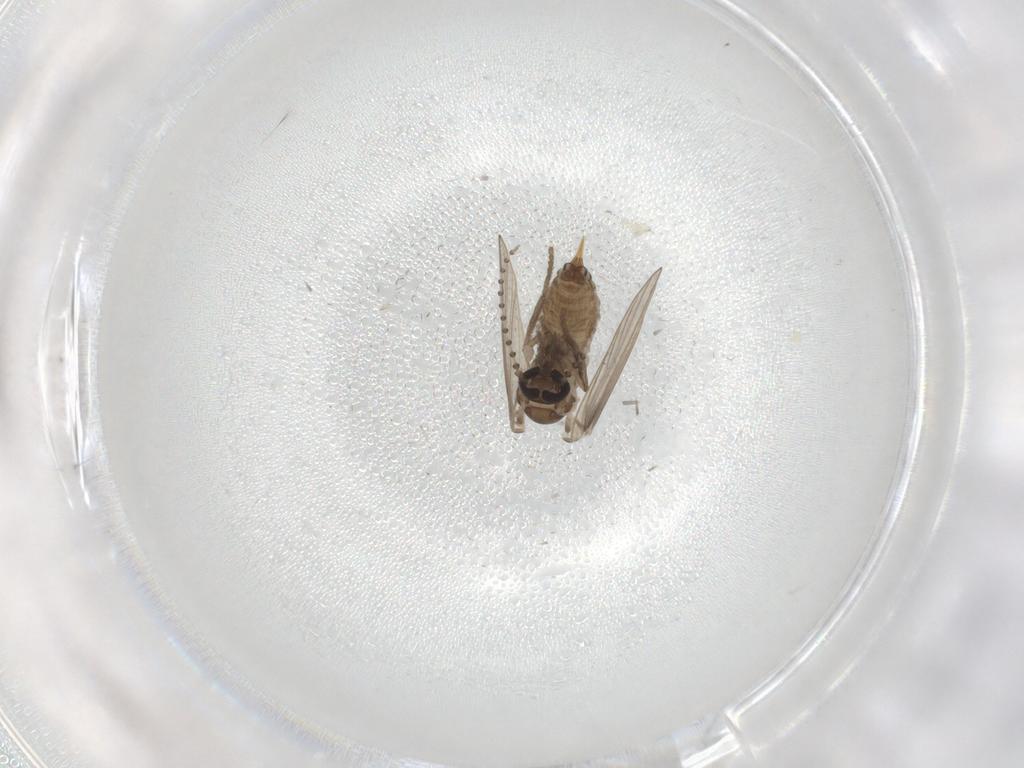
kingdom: Animalia
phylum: Arthropoda
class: Insecta
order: Diptera
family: Ceratopogonidae
